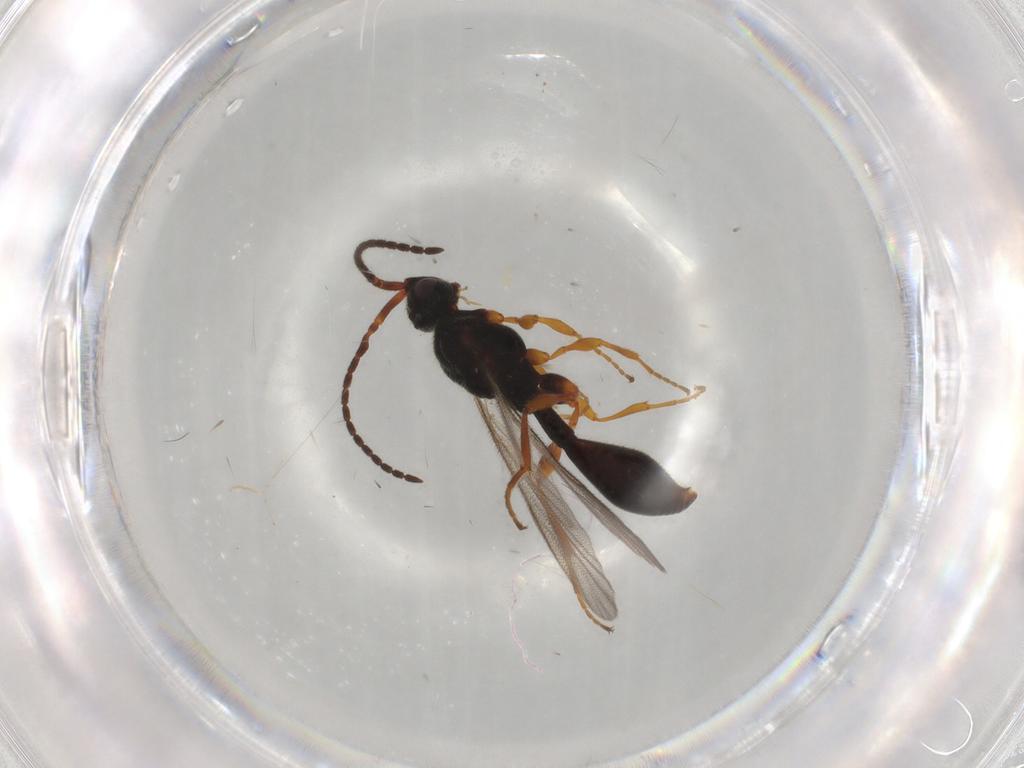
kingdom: Animalia
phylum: Arthropoda
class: Insecta
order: Hymenoptera
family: Diapriidae
